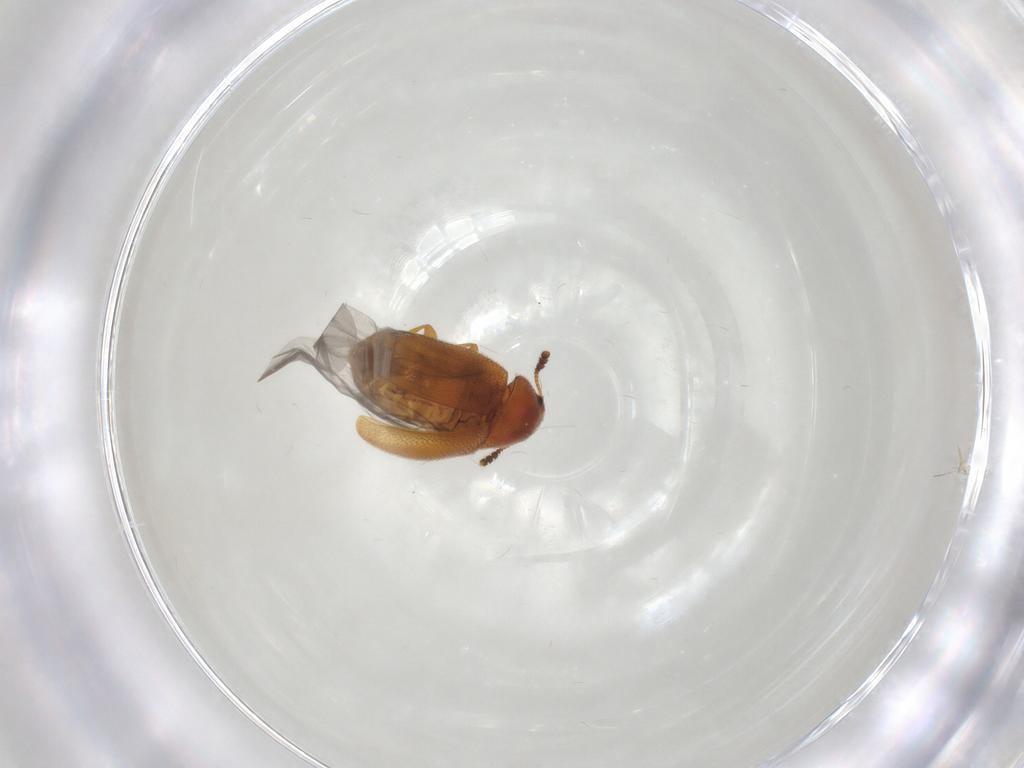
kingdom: Animalia
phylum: Arthropoda
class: Insecta
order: Coleoptera
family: Mycetophagidae
